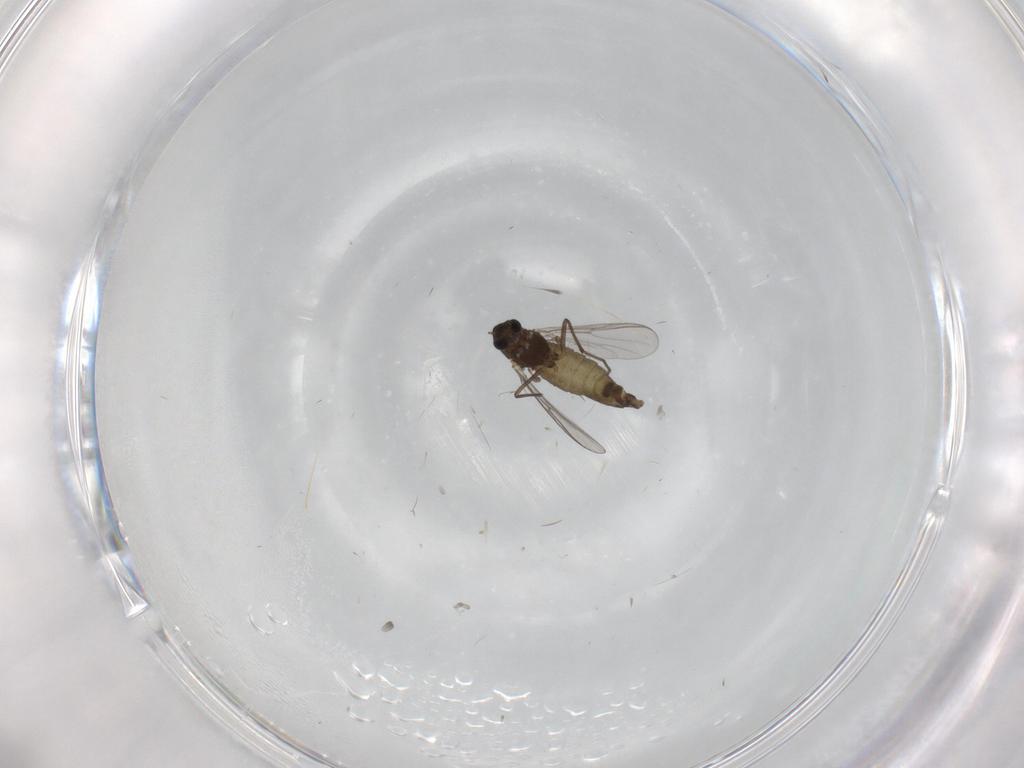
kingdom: Animalia
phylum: Arthropoda
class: Insecta
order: Diptera
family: Chironomidae
